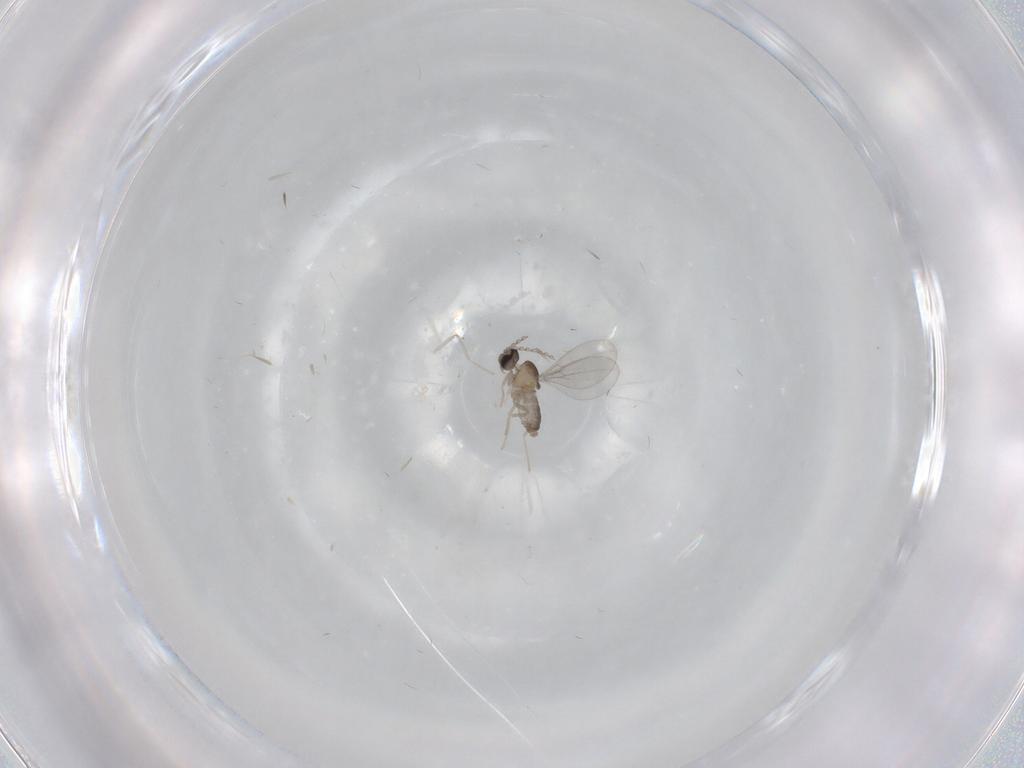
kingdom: Animalia
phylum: Arthropoda
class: Insecta
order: Diptera
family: Cecidomyiidae
